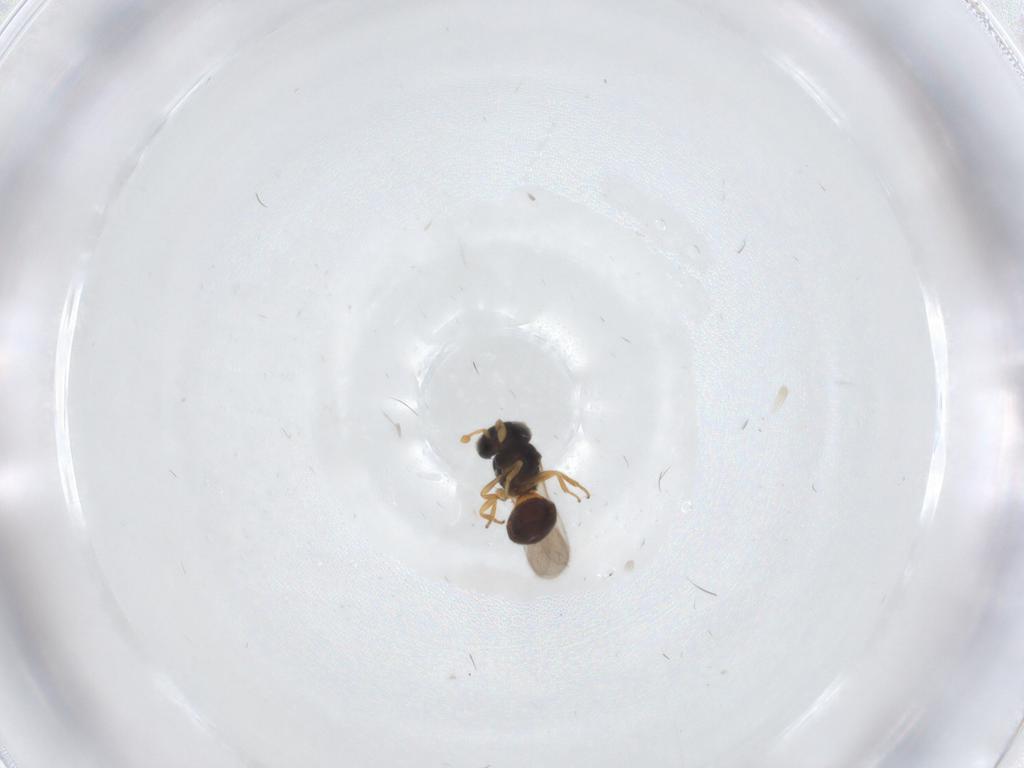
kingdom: Animalia
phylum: Arthropoda
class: Insecta
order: Hymenoptera
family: Scelionidae
